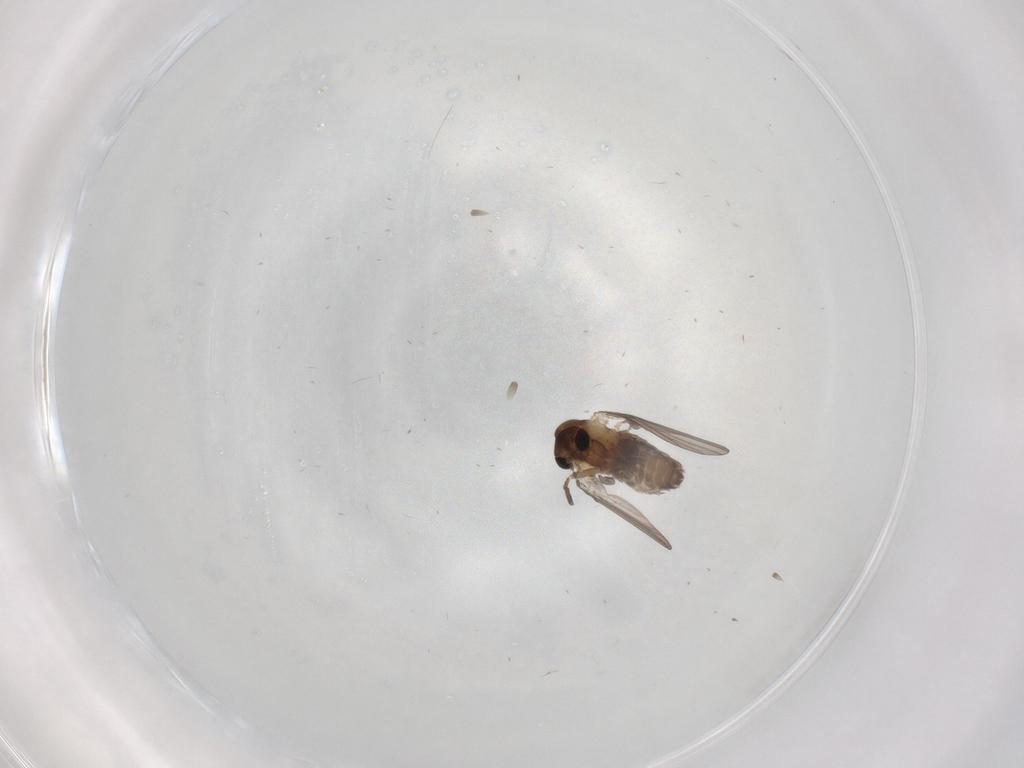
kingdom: Animalia
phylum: Arthropoda
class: Insecta
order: Diptera
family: Psychodidae
